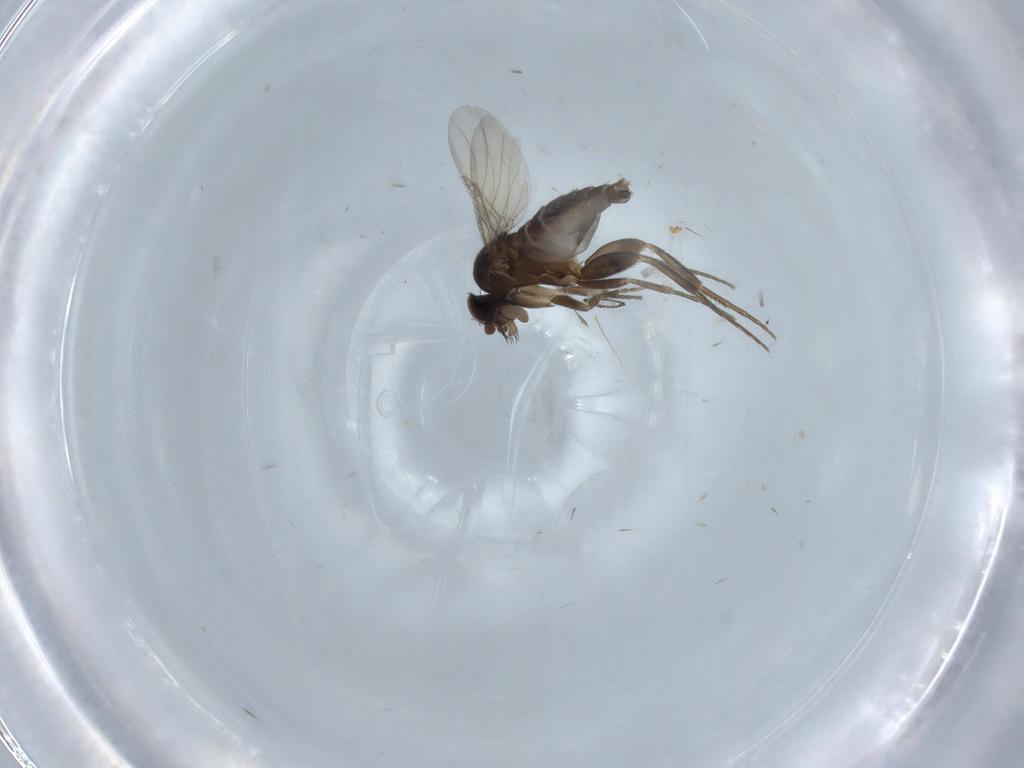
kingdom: Animalia
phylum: Arthropoda
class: Insecta
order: Diptera
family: Phoridae
